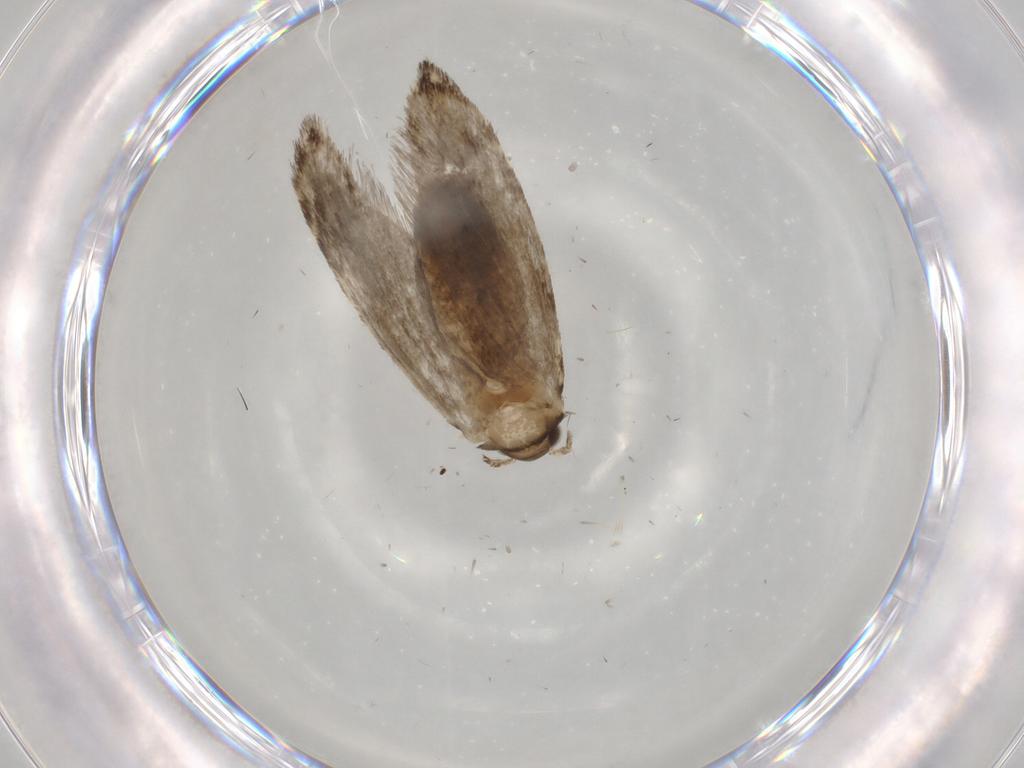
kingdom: Animalia
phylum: Arthropoda
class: Insecta
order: Lepidoptera
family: Tineidae
